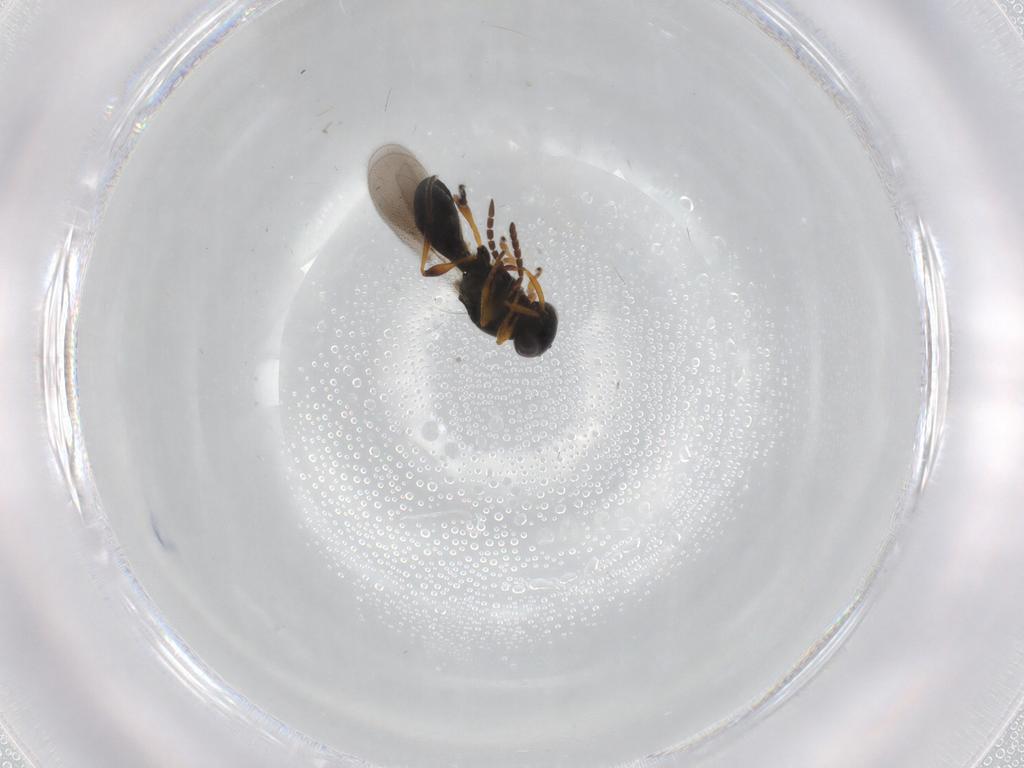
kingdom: Animalia
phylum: Arthropoda
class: Insecta
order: Hymenoptera
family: Platygastridae
